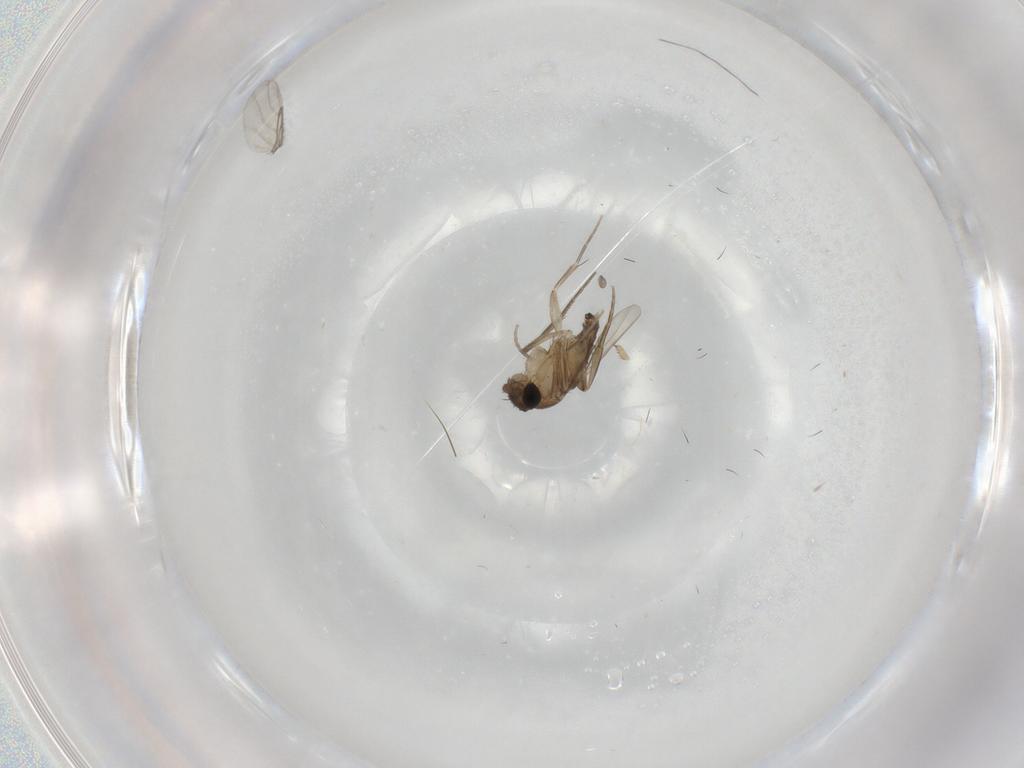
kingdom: Animalia
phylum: Arthropoda
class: Insecta
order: Diptera
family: Phoridae
